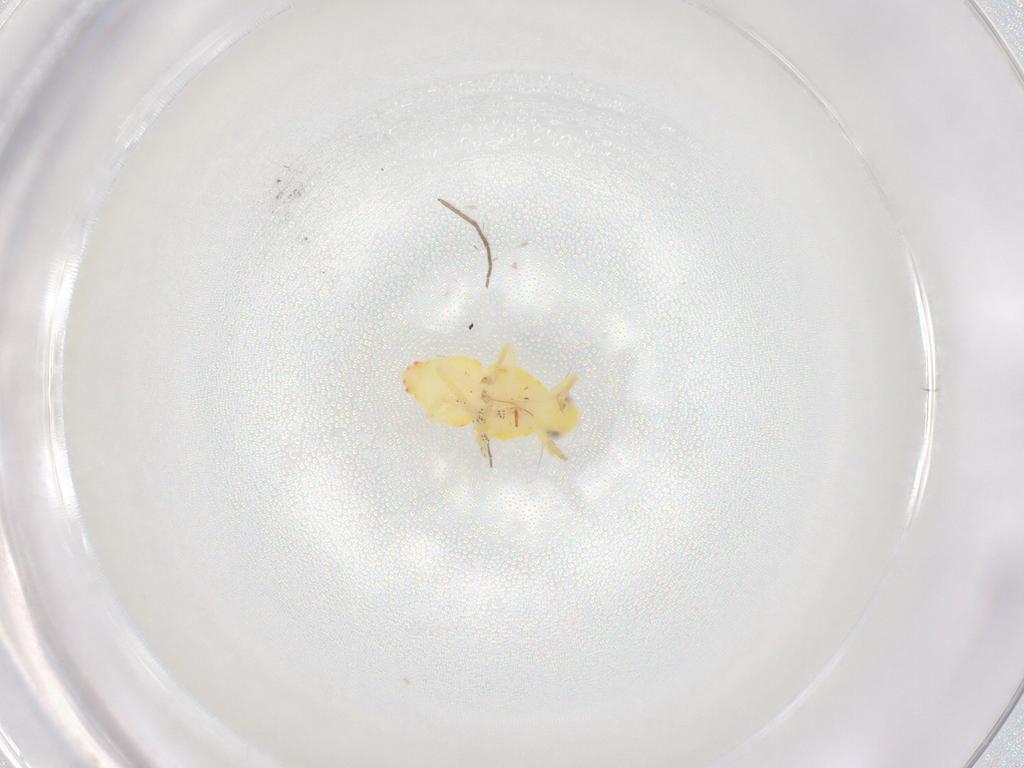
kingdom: Animalia
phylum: Arthropoda
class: Insecta
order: Hemiptera
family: Tropiduchidae
